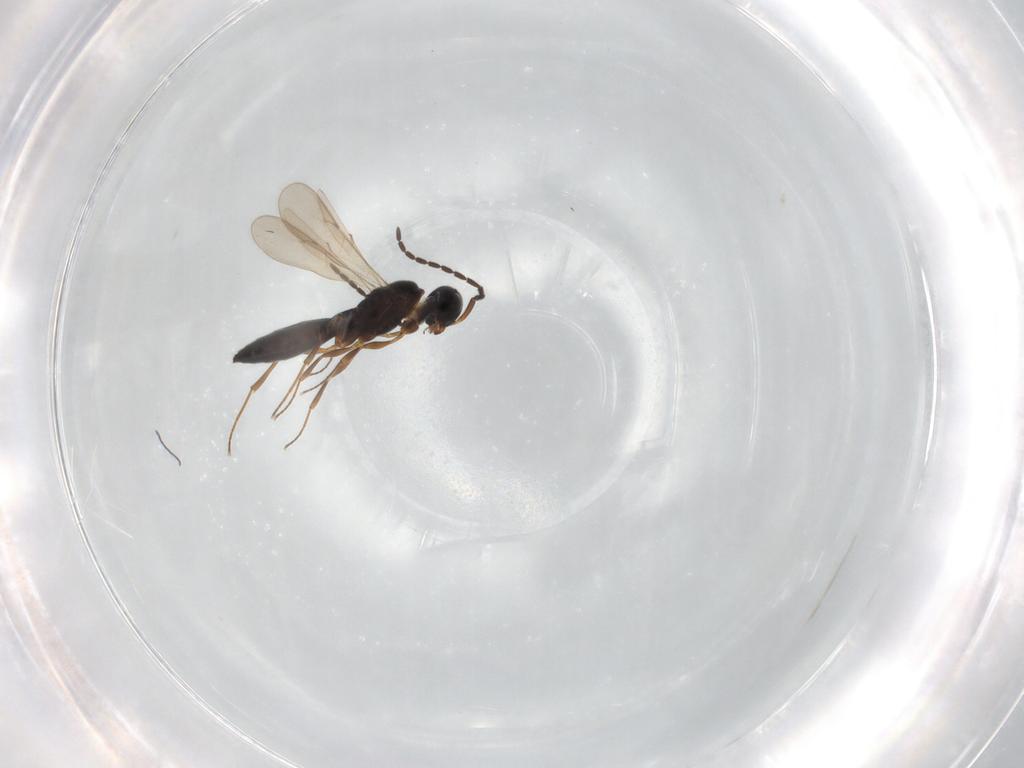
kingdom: Animalia
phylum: Arthropoda
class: Insecta
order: Hymenoptera
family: Scelionidae
